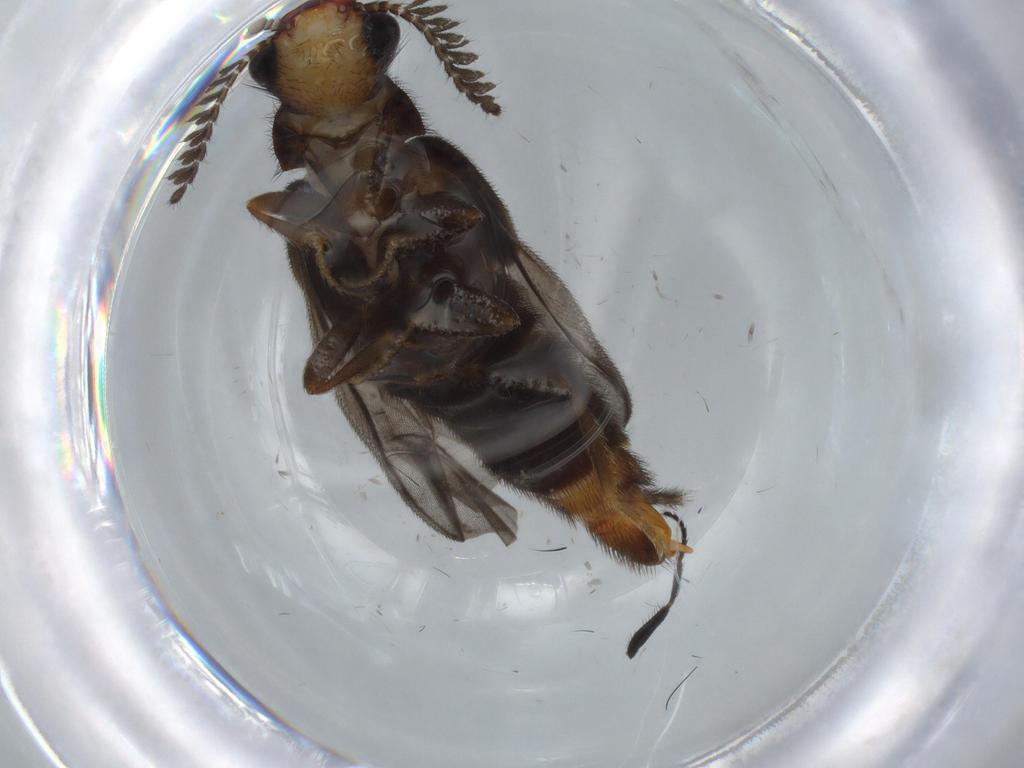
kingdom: Animalia
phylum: Arthropoda
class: Insecta
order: Coleoptera
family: Phengodidae
